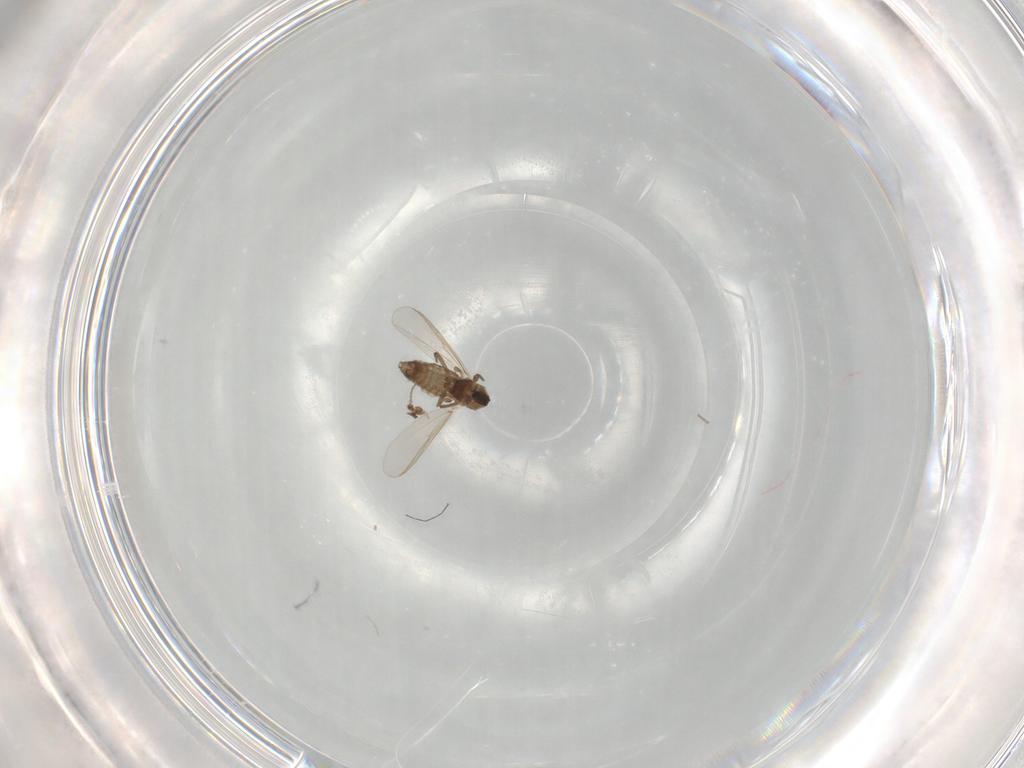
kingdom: Animalia
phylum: Arthropoda
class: Insecta
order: Diptera
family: Chironomidae
